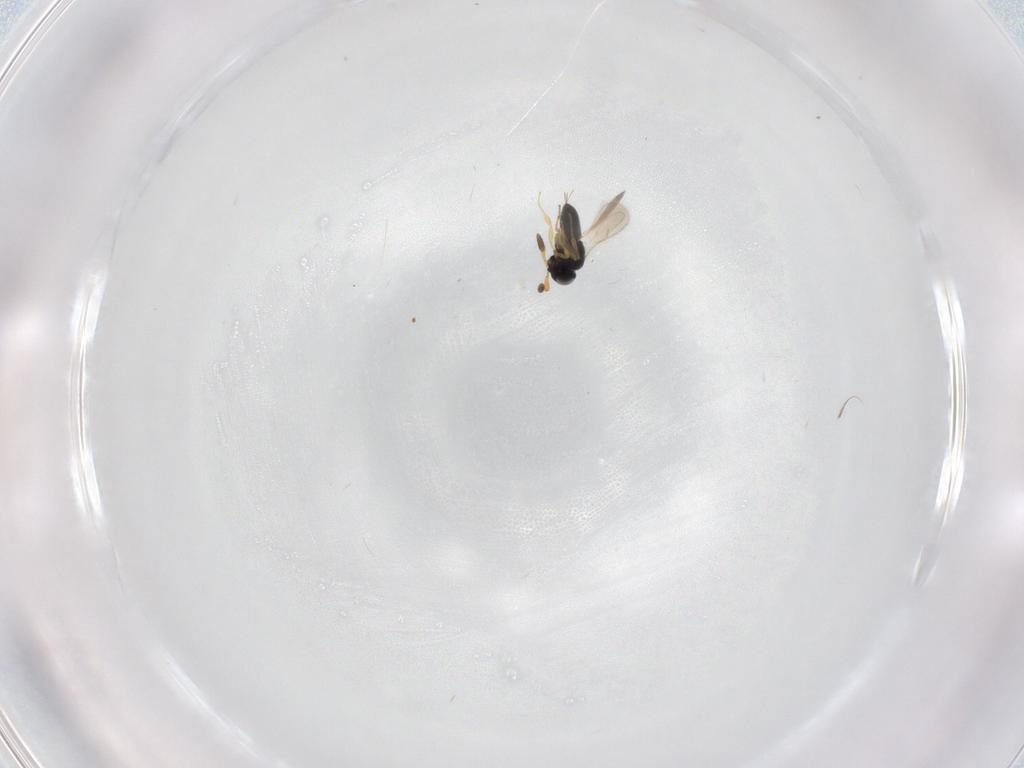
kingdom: Animalia
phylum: Arthropoda
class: Insecta
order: Hymenoptera
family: Scelionidae
